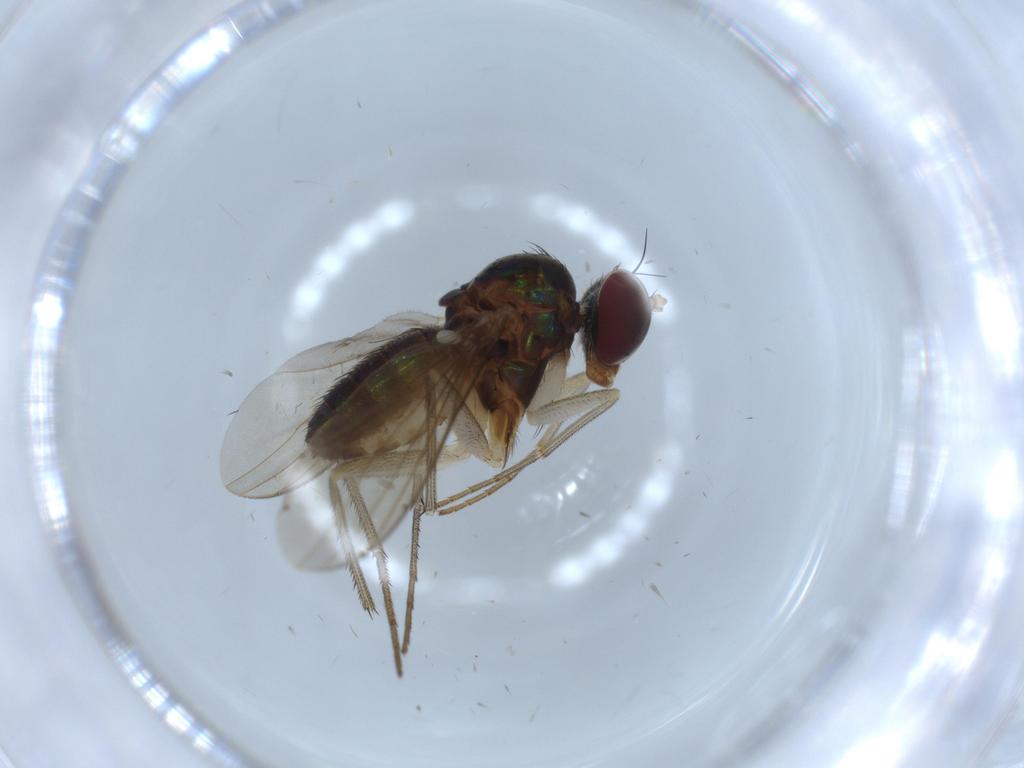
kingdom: Animalia
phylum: Arthropoda
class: Insecta
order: Diptera
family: Dolichopodidae
